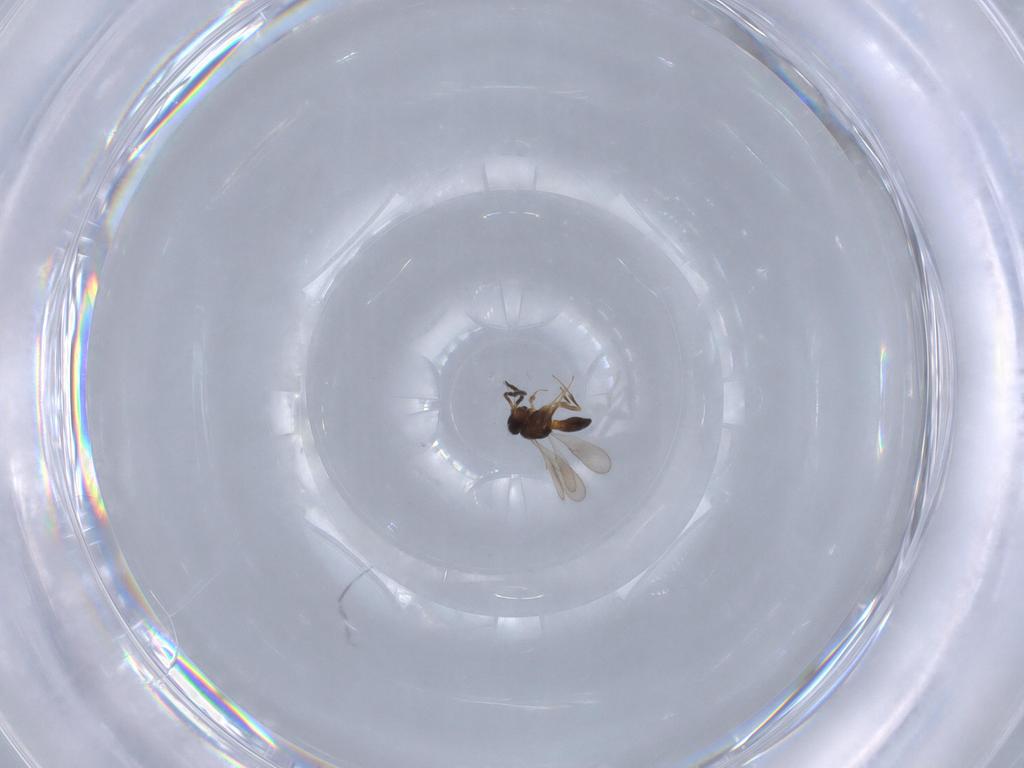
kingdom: Animalia
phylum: Arthropoda
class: Insecta
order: Hymenoptera
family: Scelionidae
